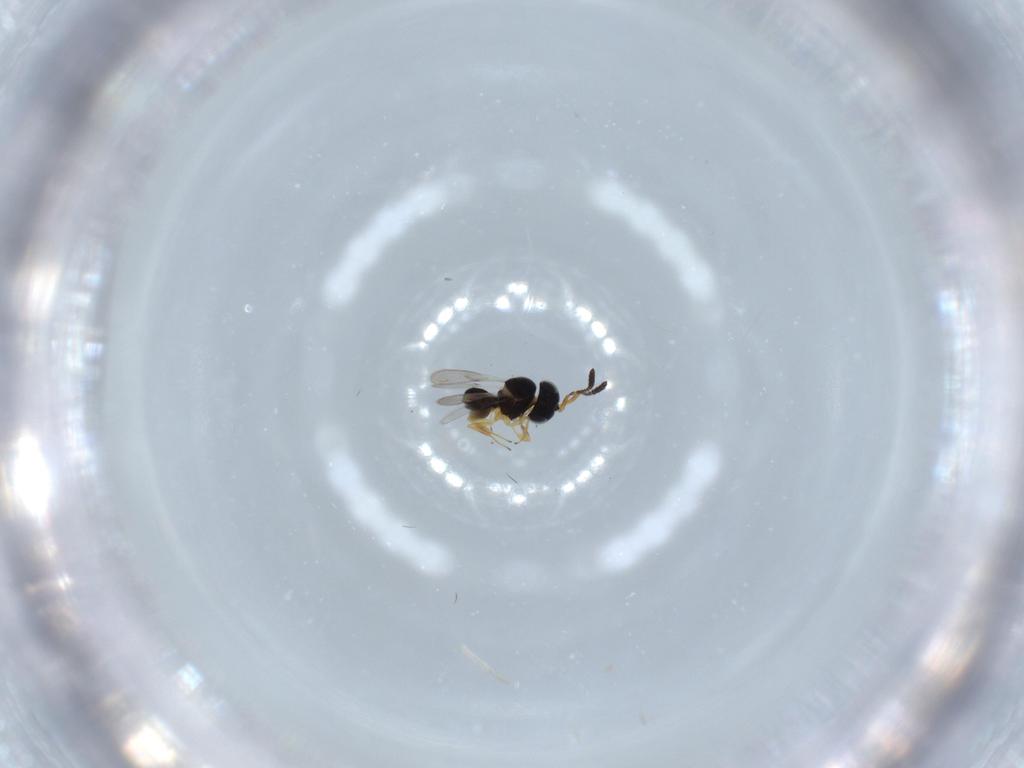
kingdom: Animalia
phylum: Arthropoda
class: Insecta
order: Hymenoptera
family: Scelionidae
